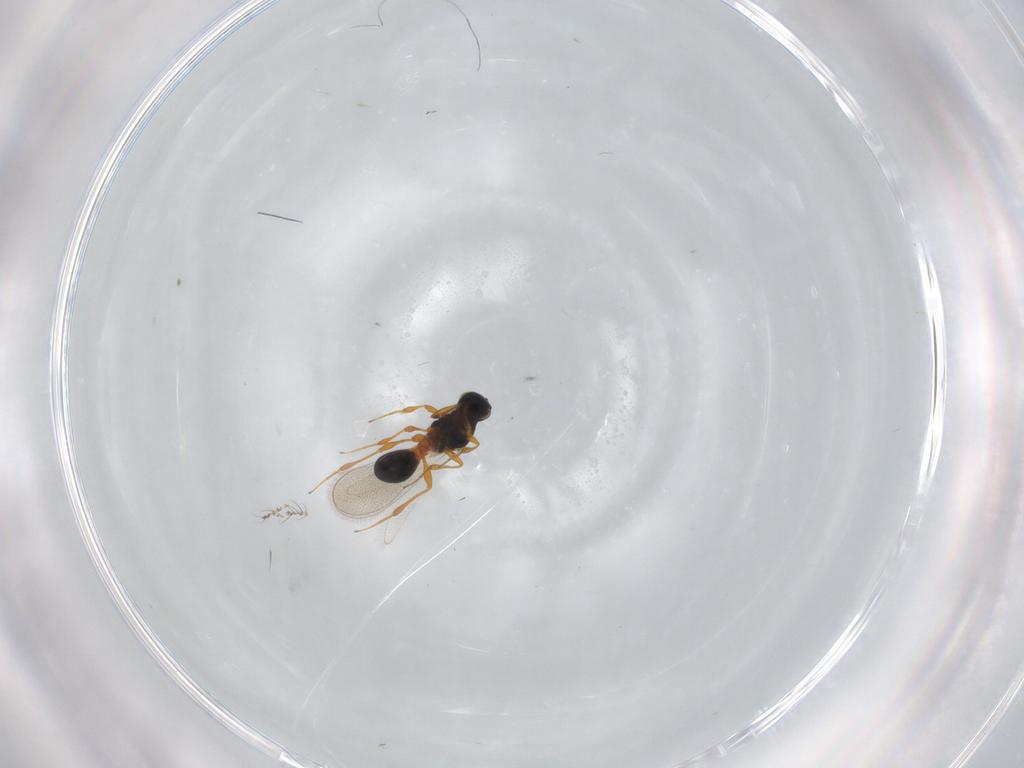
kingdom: Animalia
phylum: Arthropoda
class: Insecta
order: Hymenoptera
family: Platygastridae
